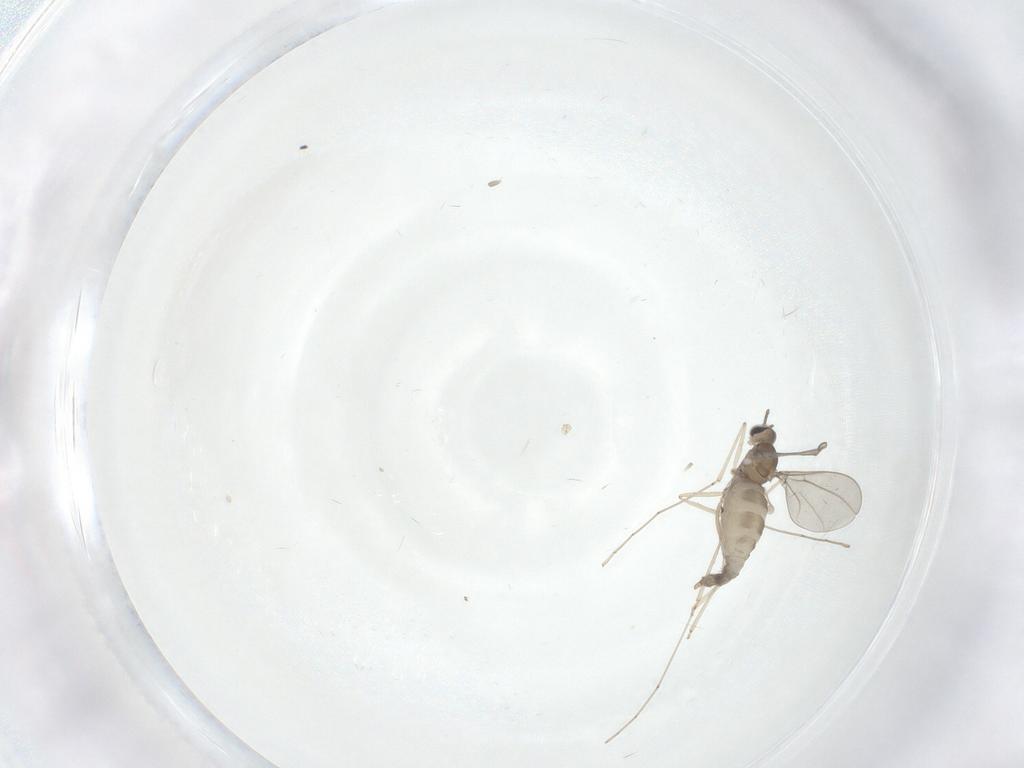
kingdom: Animalia
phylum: Arthropoda
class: Insecta
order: Diptera
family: Cecidomyiidae
